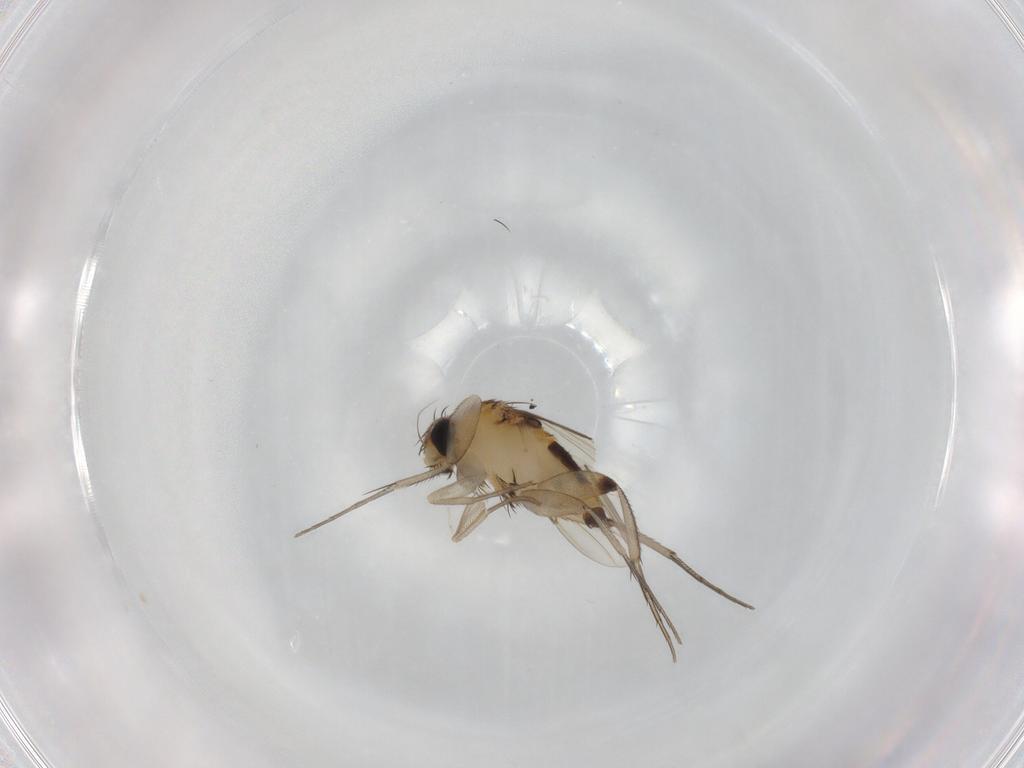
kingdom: Animalia
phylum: Arthropoda
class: Insecta
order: Diptera
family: Phoridae
